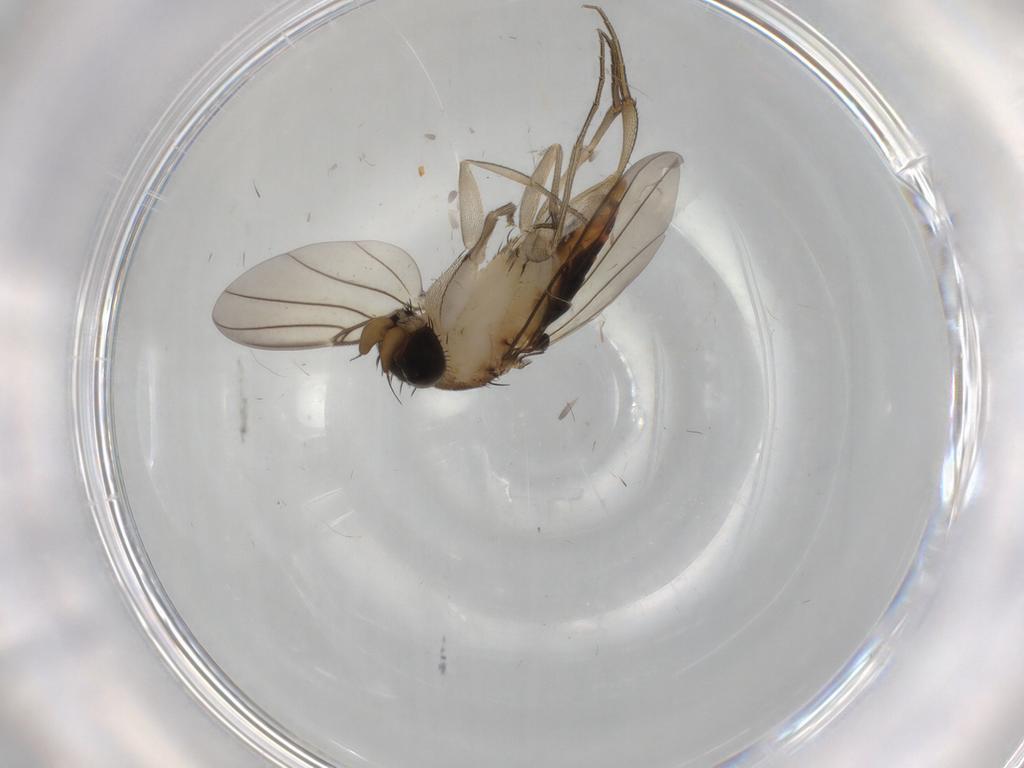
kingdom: Animalia
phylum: Arthropoda
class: Insecta
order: Diptera
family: Phoridae
